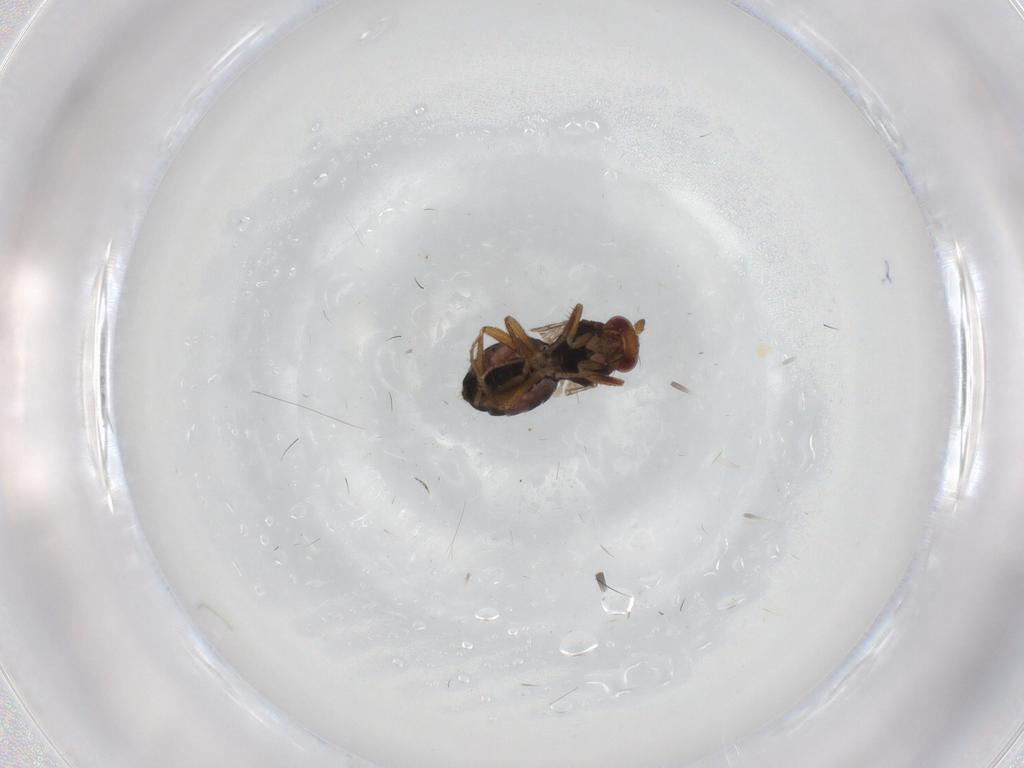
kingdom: Animalia
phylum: Arthropoda
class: Insecta
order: Diptera
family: Sphaeroceridae
